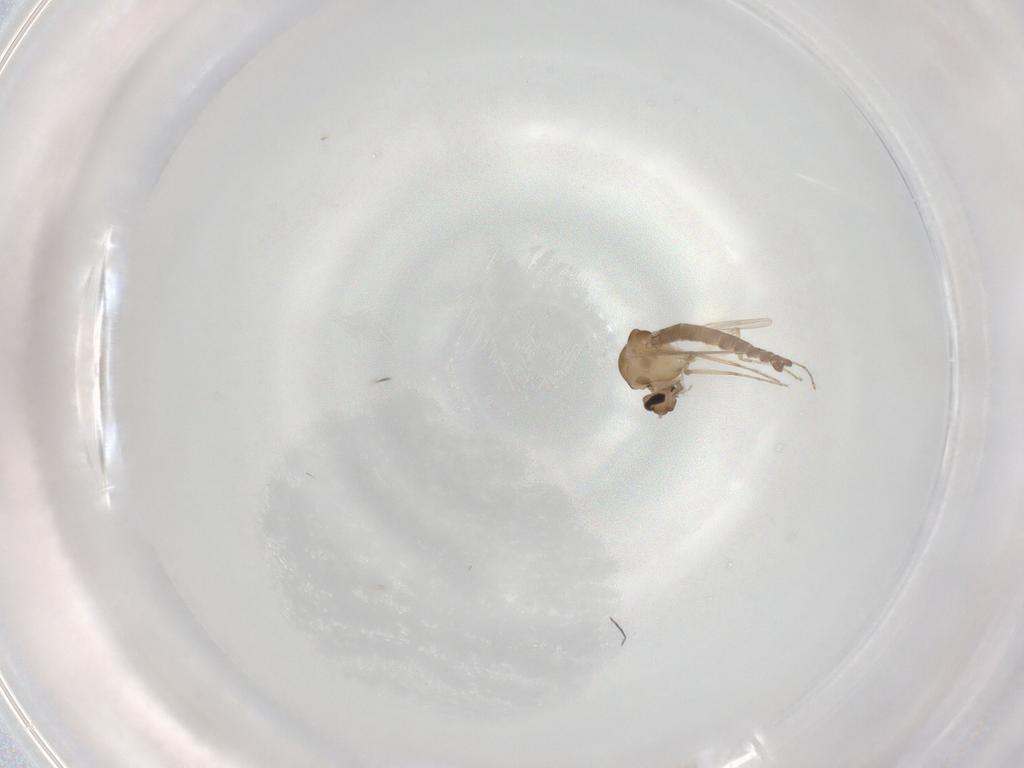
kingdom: Animalia
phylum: Arthropoda
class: Insecta
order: Diptera
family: Ceratopogonidae
